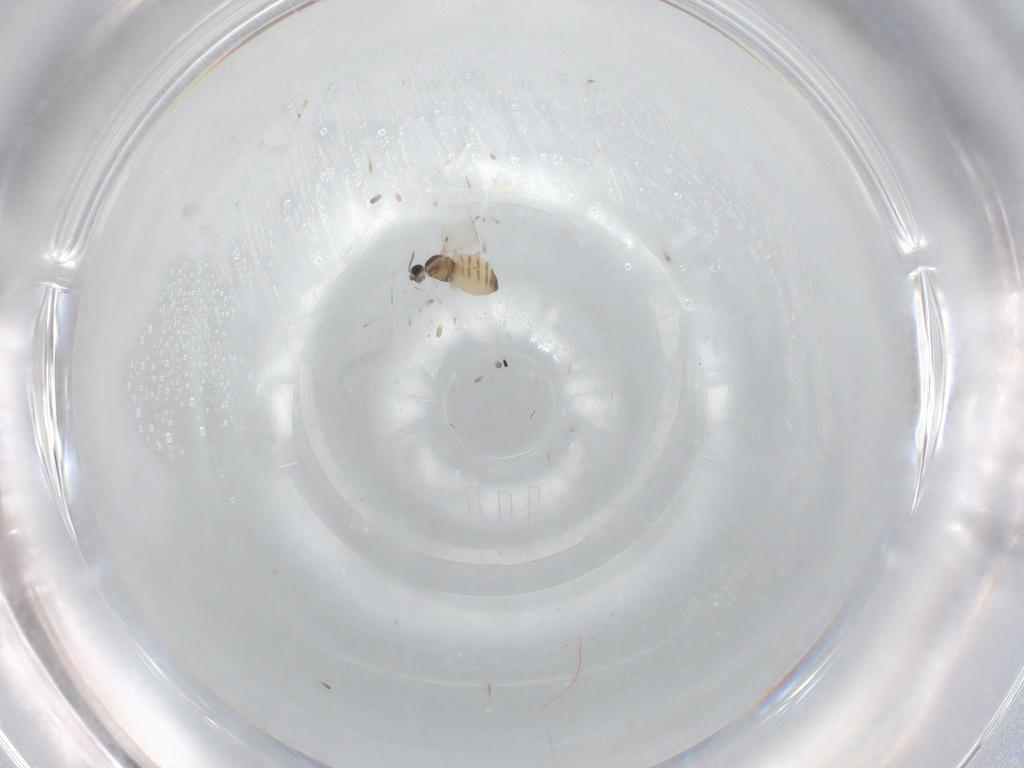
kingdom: Animalia
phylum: Arthropoda
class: Insecta
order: Diptera
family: Cecidomyiidae
